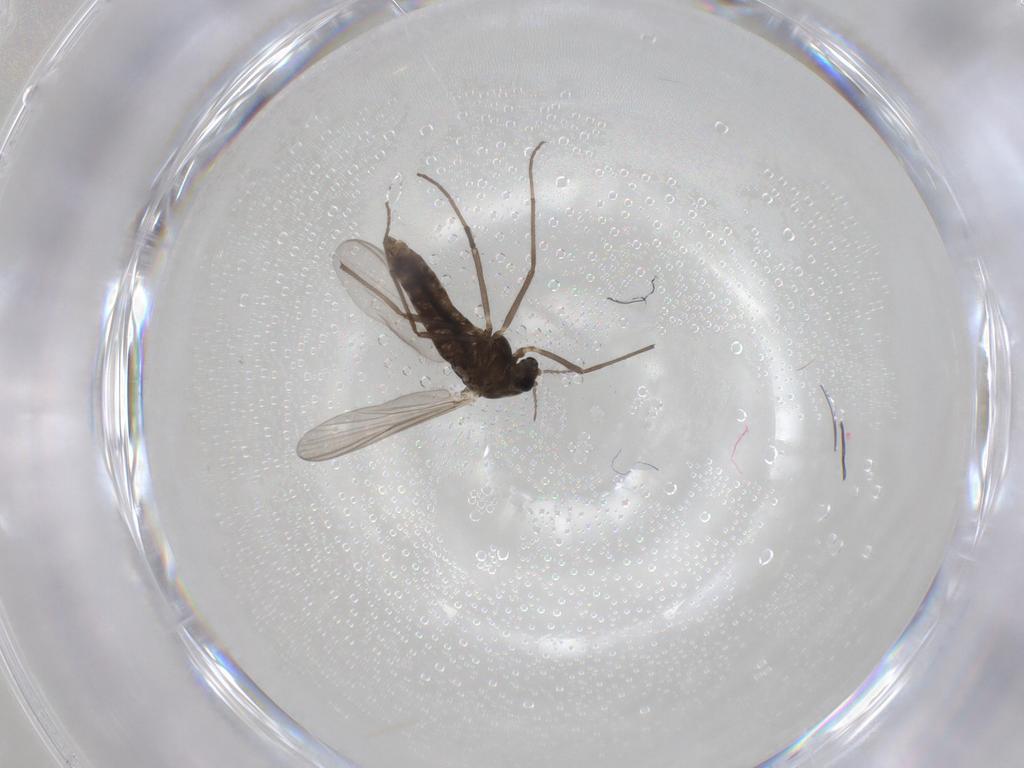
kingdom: Animalia
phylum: Arthropoda
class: Insecta
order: Diptera
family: Chironomidae
